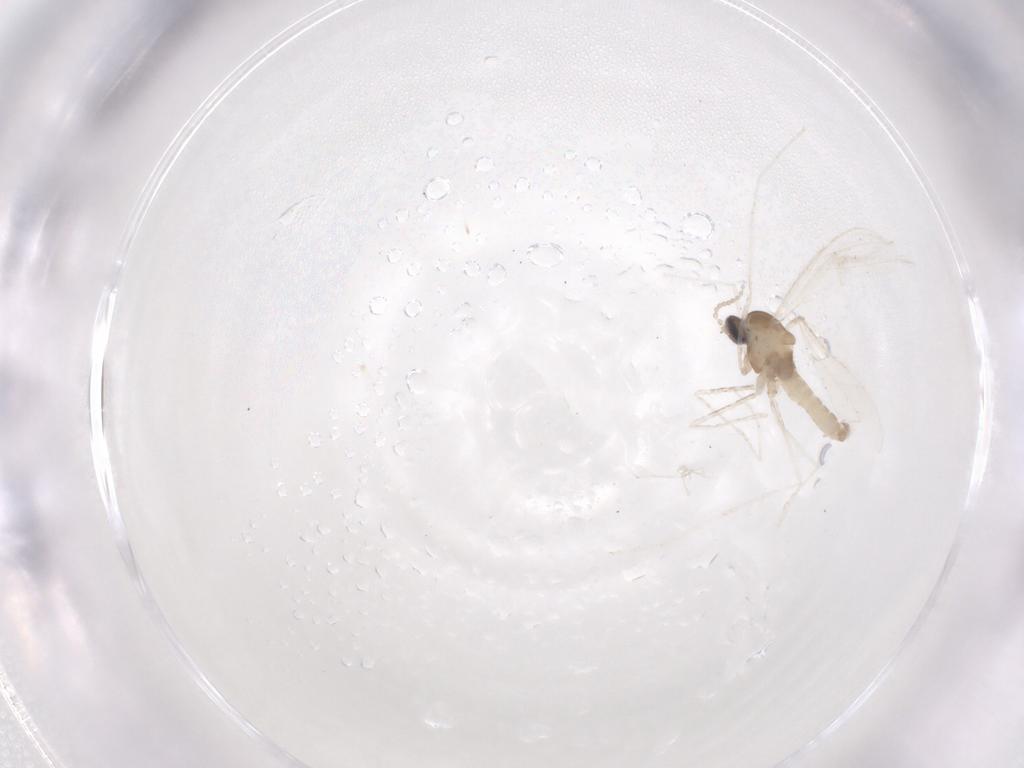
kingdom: Animalia
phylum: Arthropoda
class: Insecta
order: Diptera
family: Cecidomyiidae
